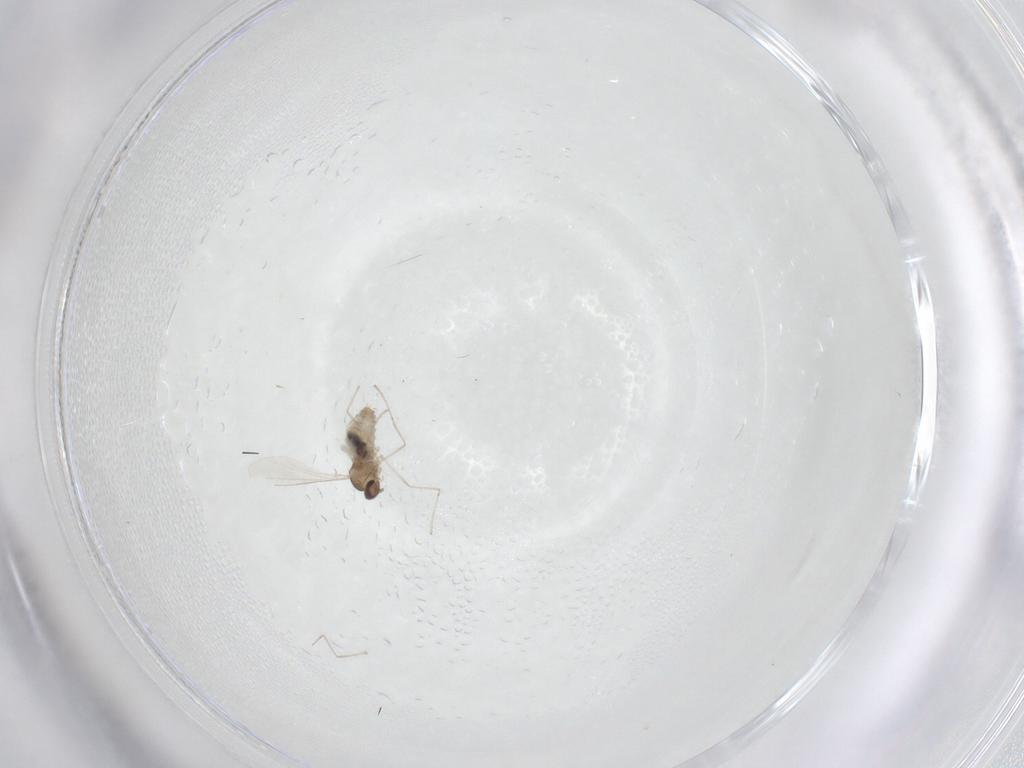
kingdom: Animalia
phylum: Arthropoda
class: Insecta
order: Diptera
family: Cecidomyiidae
